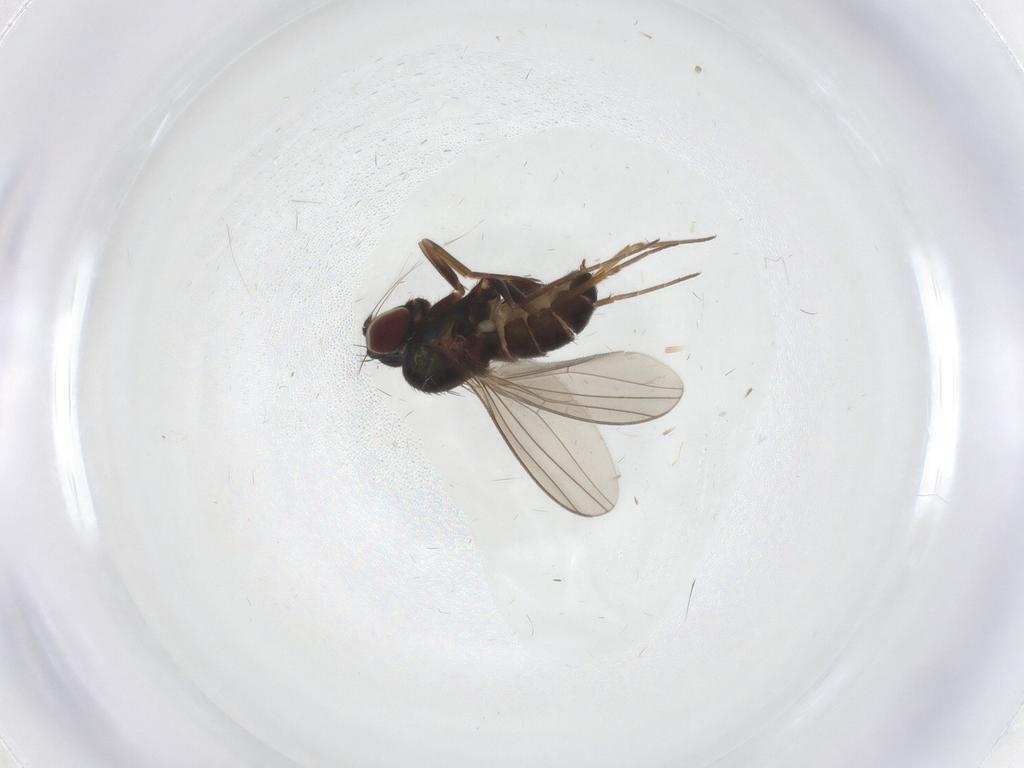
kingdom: Animalia
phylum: Arthropoda
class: Insecta
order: Diptera
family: Dolichopodidae
